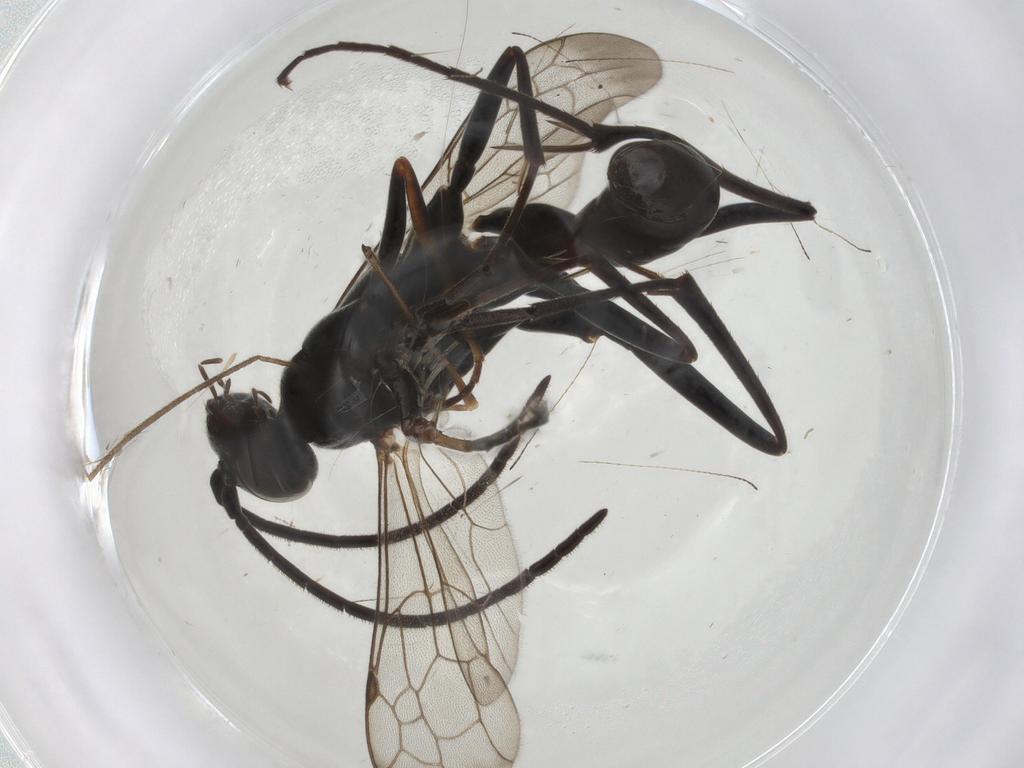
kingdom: Animalia
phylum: Arthropoda
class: Insecta
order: Hymenoptera
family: Pompilidae
